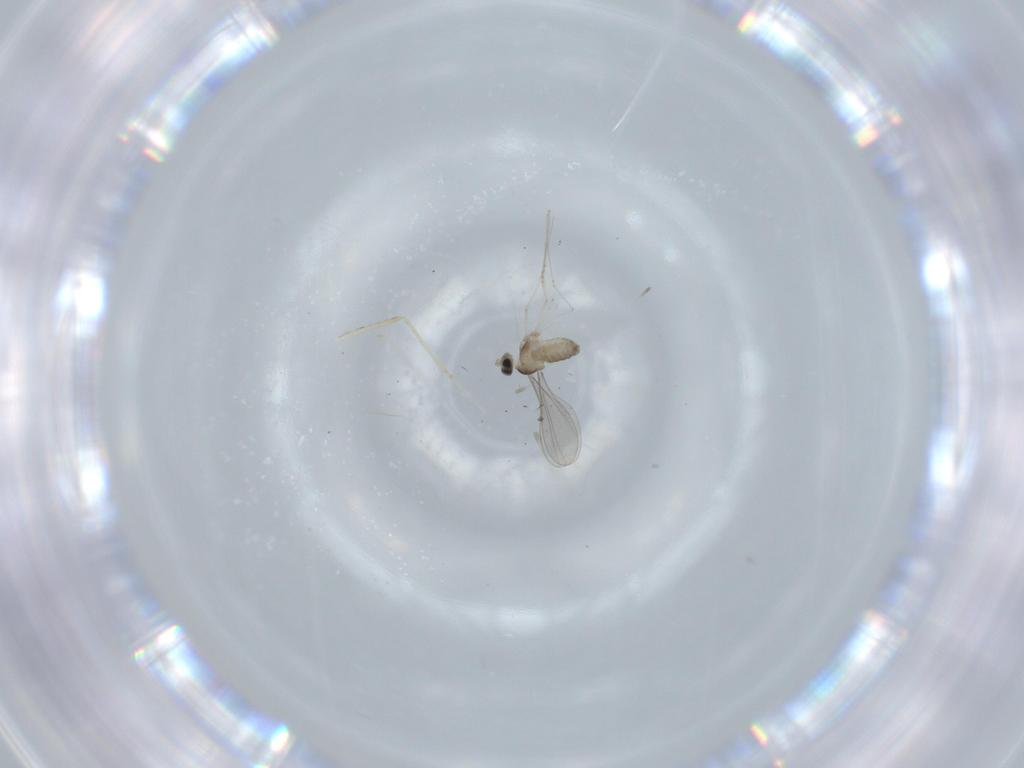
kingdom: Animalia
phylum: Arthropoda
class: Insecta
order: Diptera
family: Cecidomyiidae
